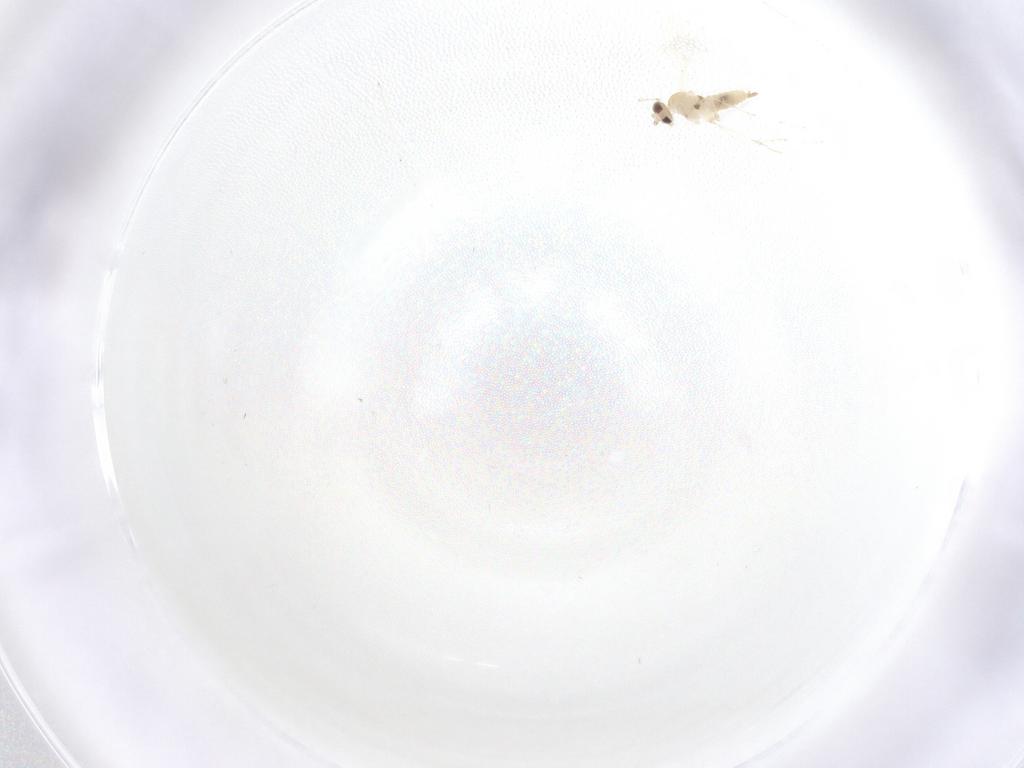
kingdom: Animalia
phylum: Arthropoda
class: Insecta
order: Diptera
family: Cecidomyiidae
